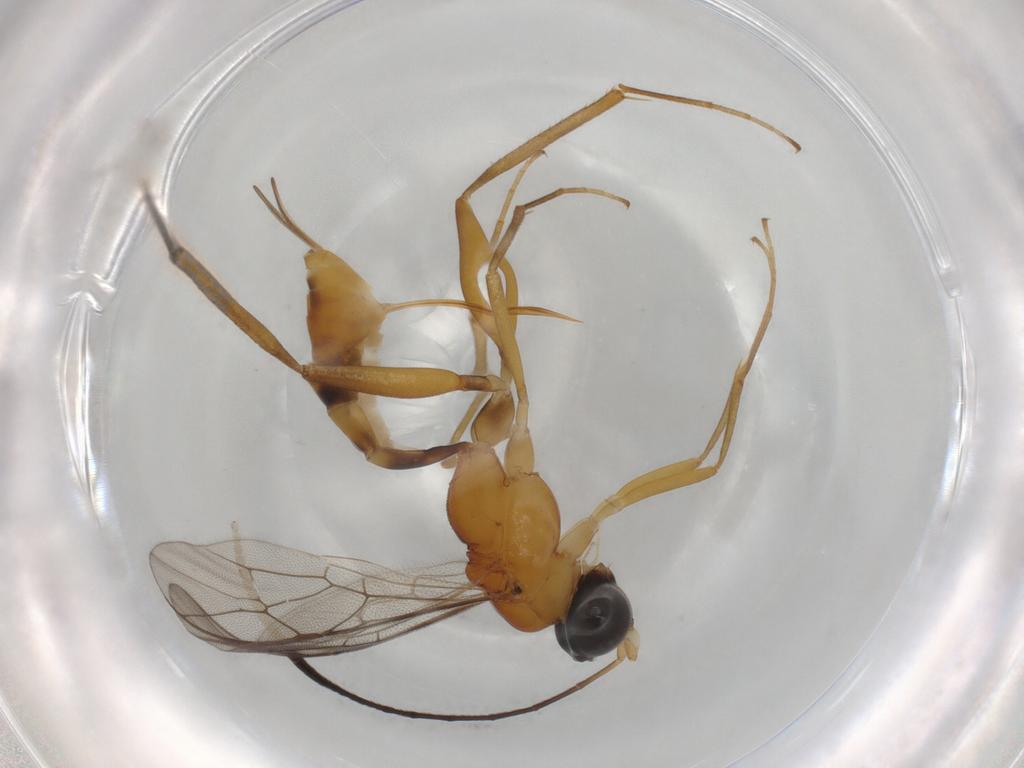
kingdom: Animalia
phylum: Arthropoda
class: Insecta
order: Hymenoptera
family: Ichneumonidae
